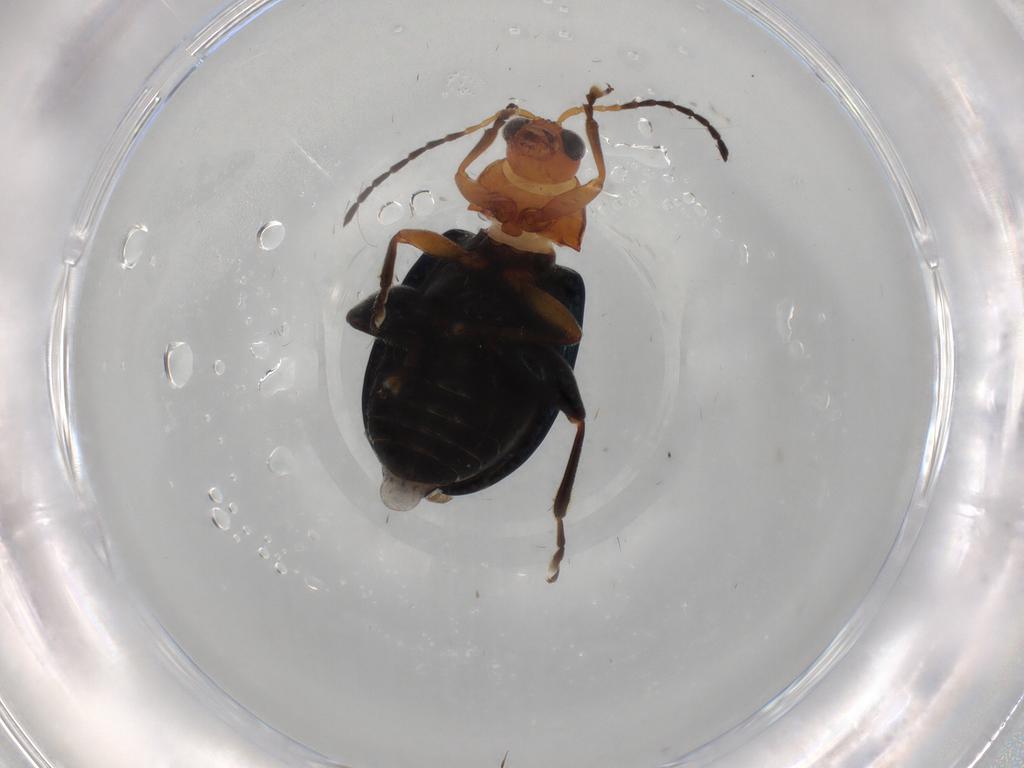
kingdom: Animalia
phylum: Arthropoda
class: Insecta
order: Coleoptera
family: Chrysomelidae
